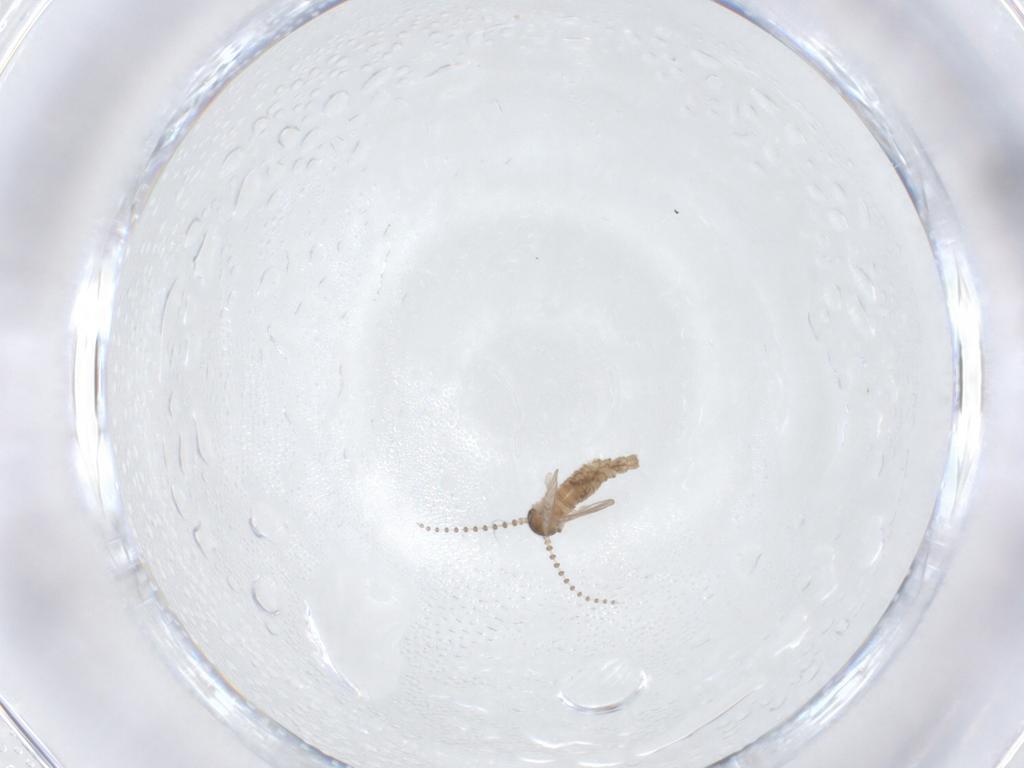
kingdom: Animalia
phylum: Arthropoda
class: Insecta
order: Diptera
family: Psychodidae
